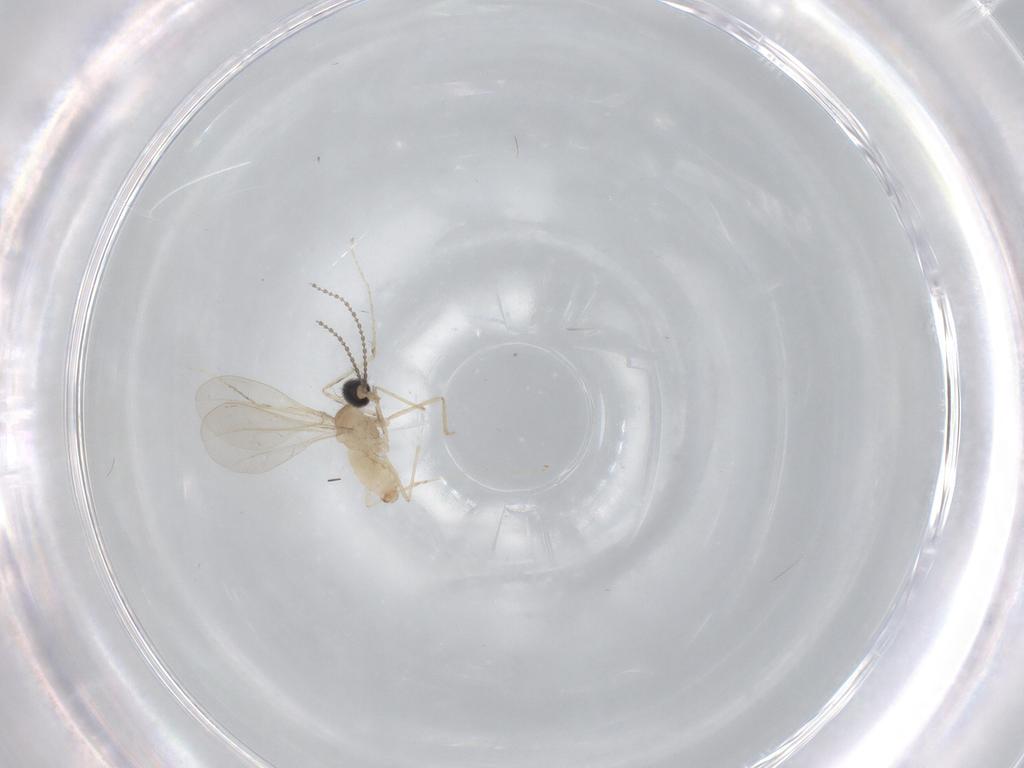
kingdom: Animalia
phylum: Arthropoda
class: Insecta
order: Diptera
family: Cecidomyiidae
